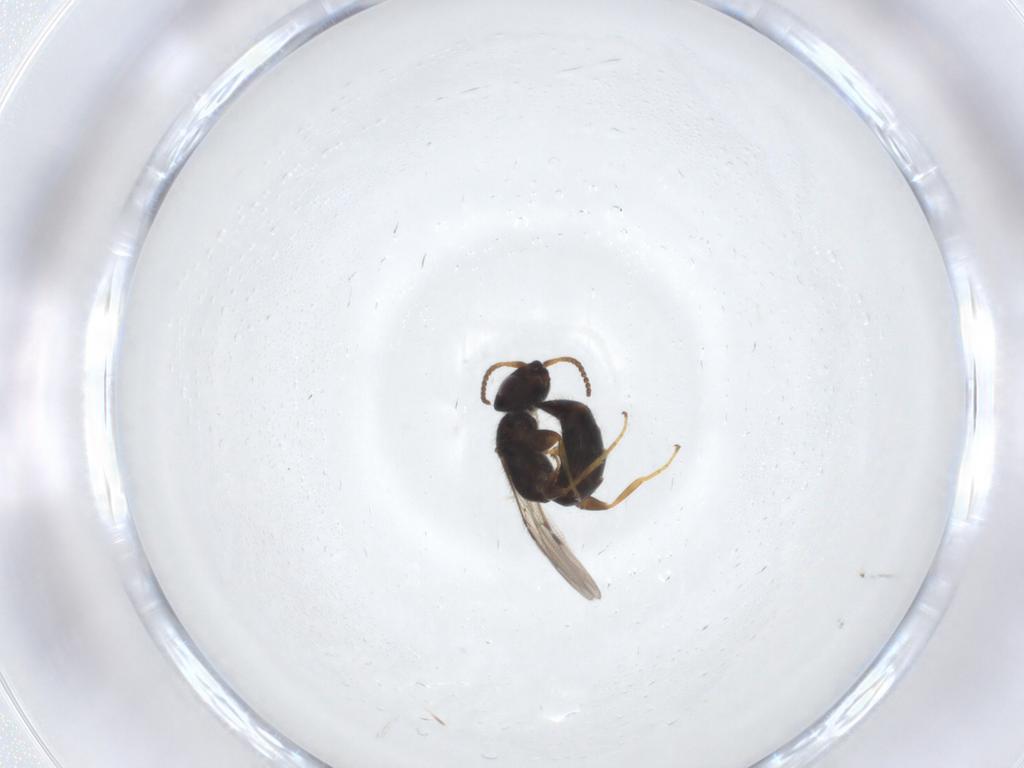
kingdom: Animalia
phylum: Arthropoda
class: Insecta
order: Hymenoptera
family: Bethylidae
